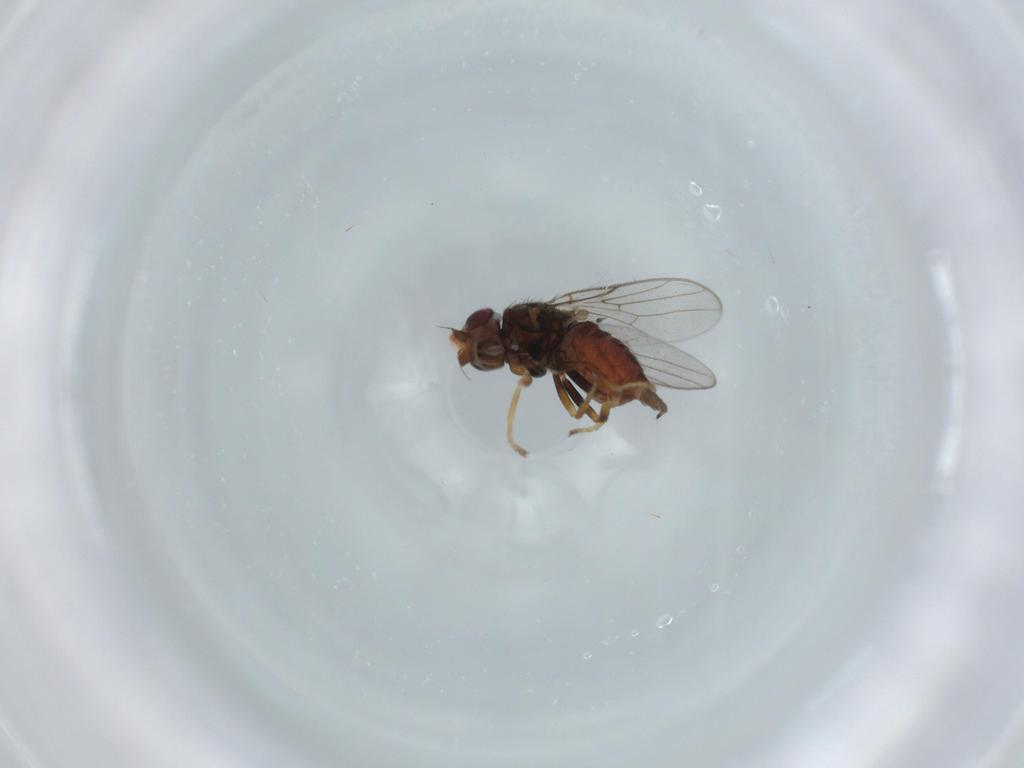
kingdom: Animalia
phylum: Arthropoda
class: Insecta
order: Diptera
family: Chloropidae
